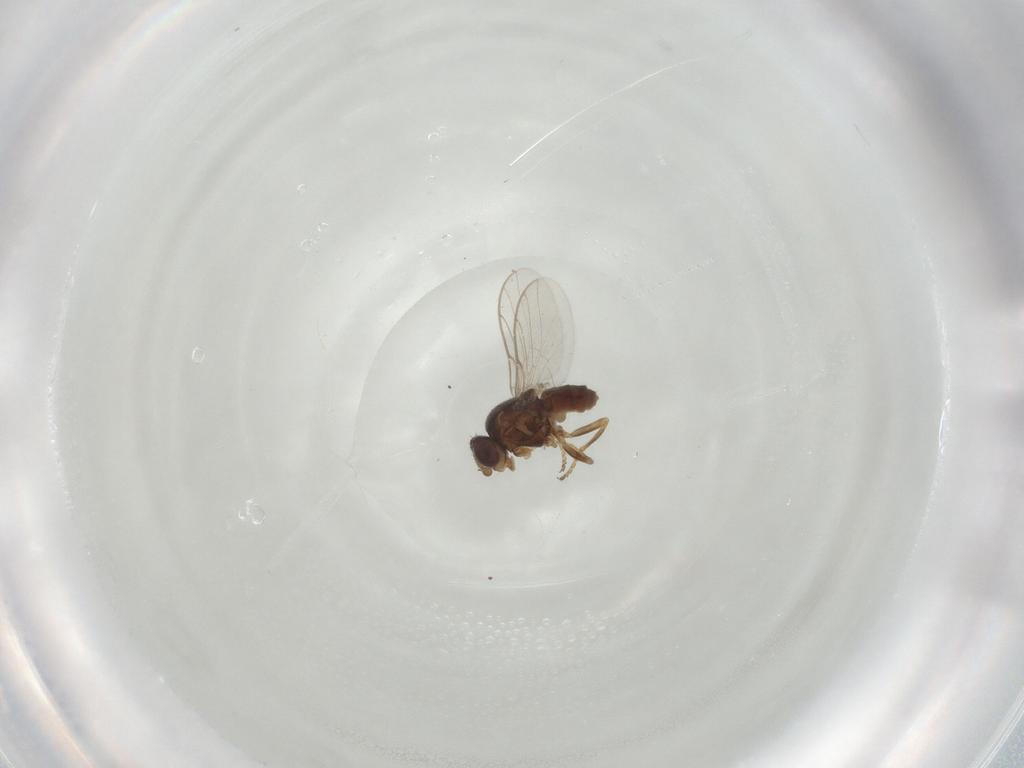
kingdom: Animalia
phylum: Arthropoda
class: Insecta
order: Diptera
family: Chloropidae
